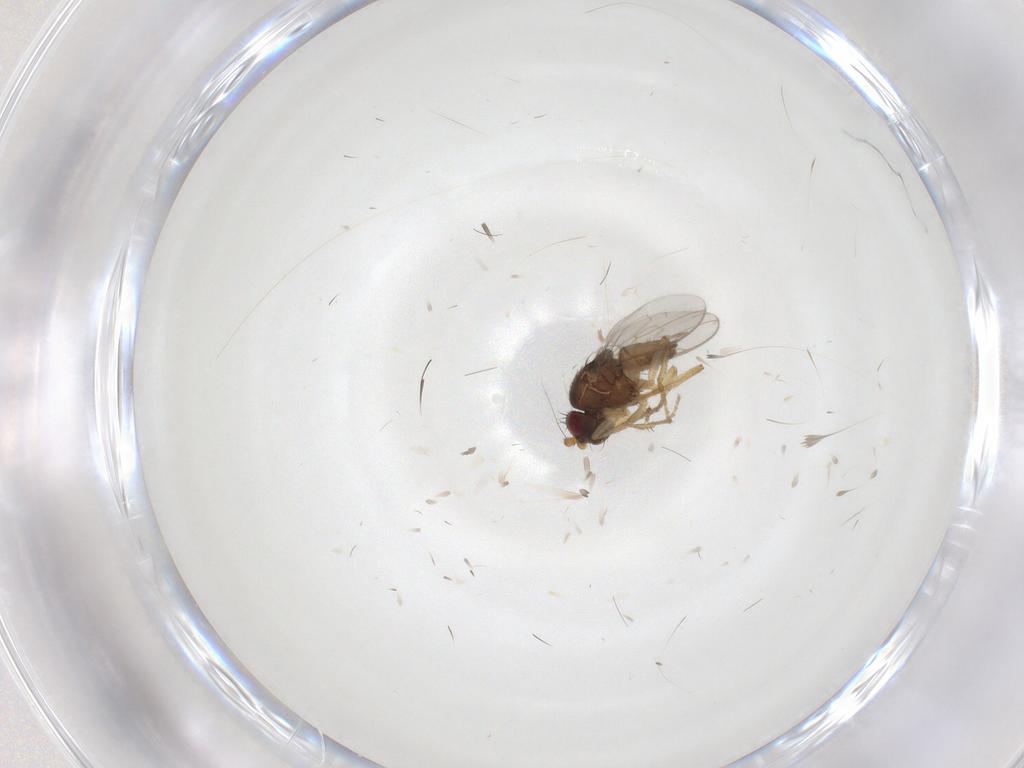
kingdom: Animalia
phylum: Arthropoda
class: Insecta
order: Diptera
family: Sphaeroceridae
